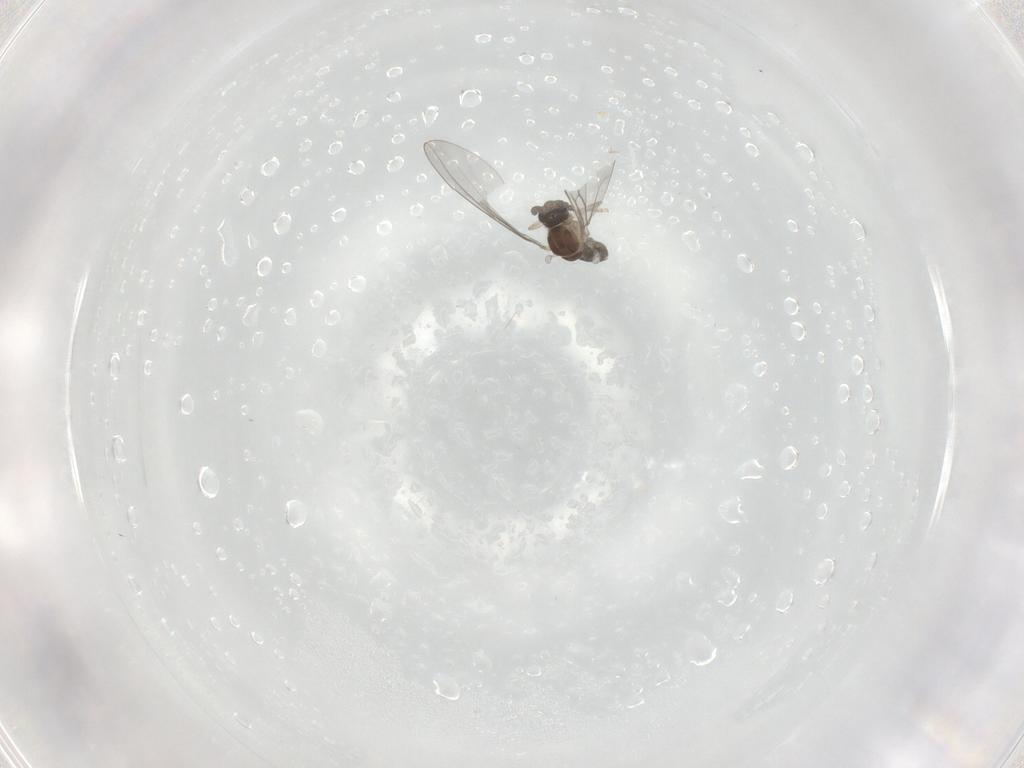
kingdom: Animalia
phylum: Arthropoda
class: Insecta
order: Diptera
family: Cecidomyiidae
